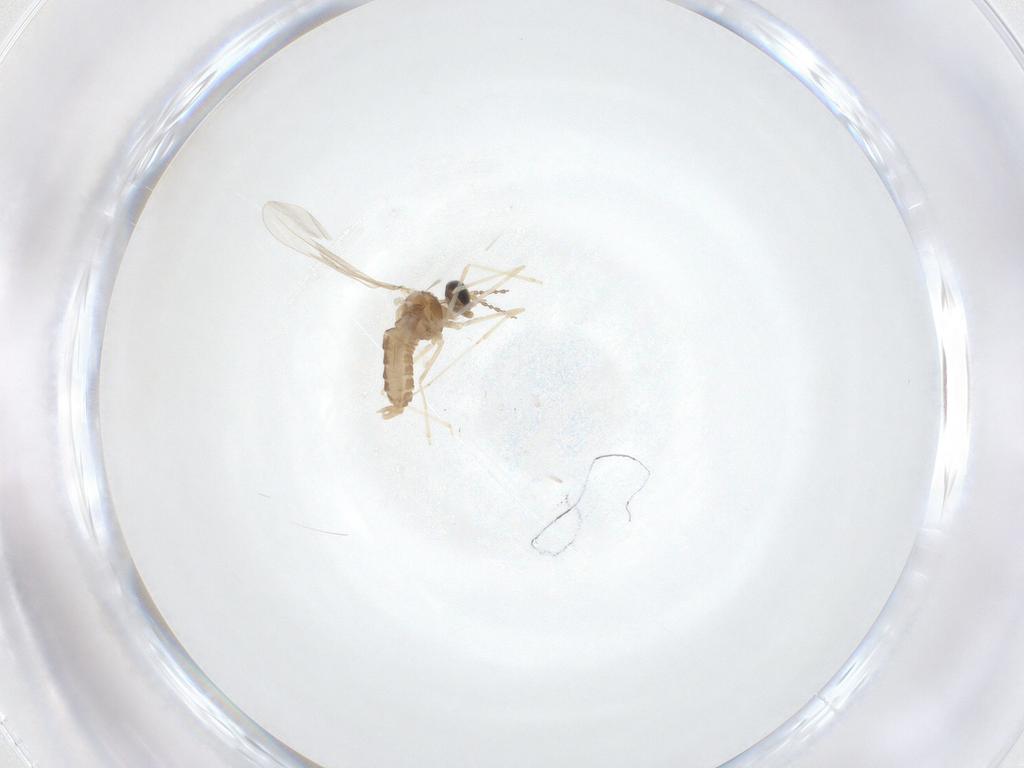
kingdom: Animalia
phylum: Arthropoda
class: Insecta
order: Diptera
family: Cecidomyiidae
